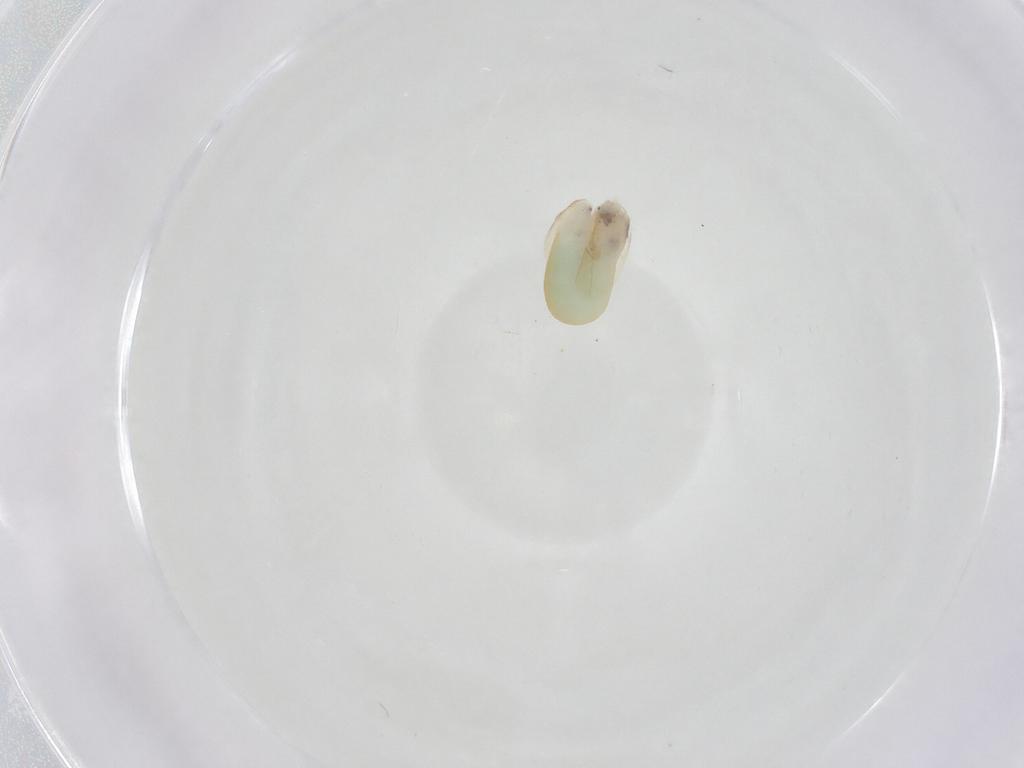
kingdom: Animalia
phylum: Arthropoda
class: Insecta
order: Hymenoptera
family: Dryinidae
